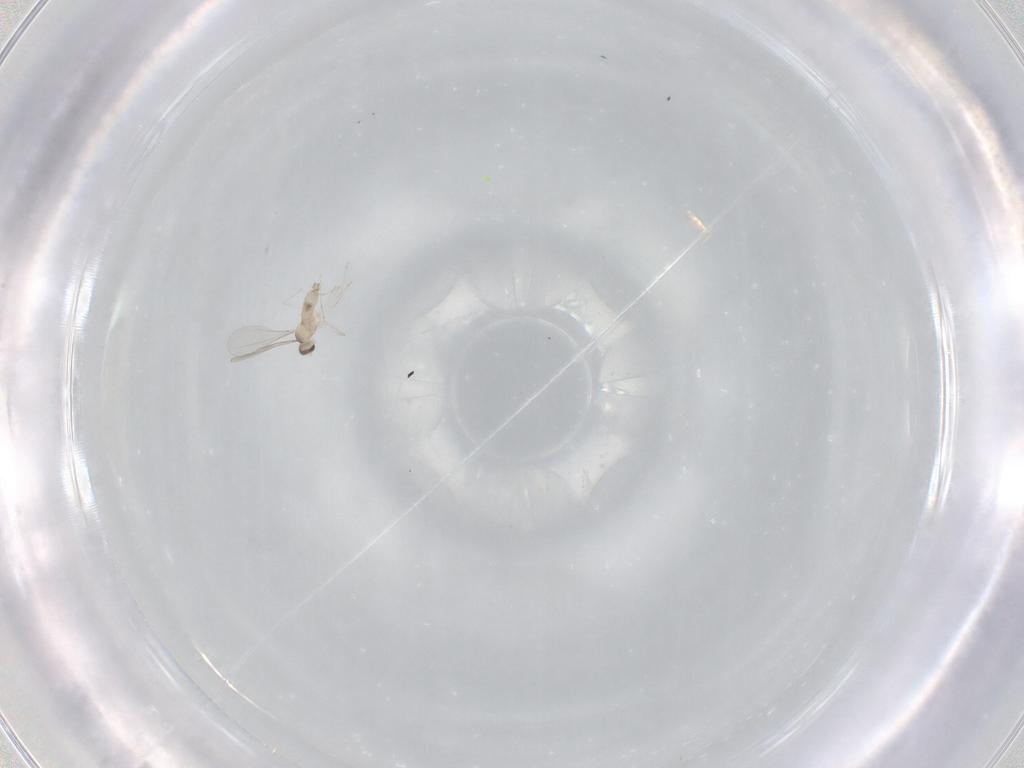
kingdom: Animalia
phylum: Arthropoda
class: Insecta
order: Diptera
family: Cecidomyiidae
